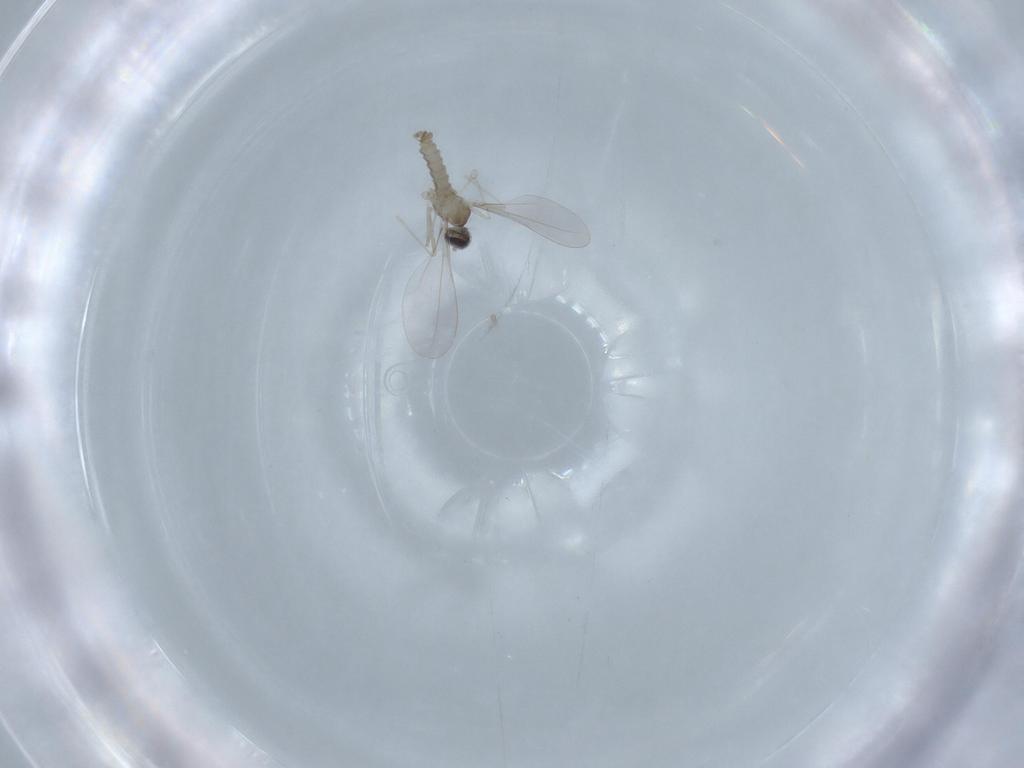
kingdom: Animalia
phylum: Arthropoda
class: Insecta
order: Diptera
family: Cecidomyiidae
